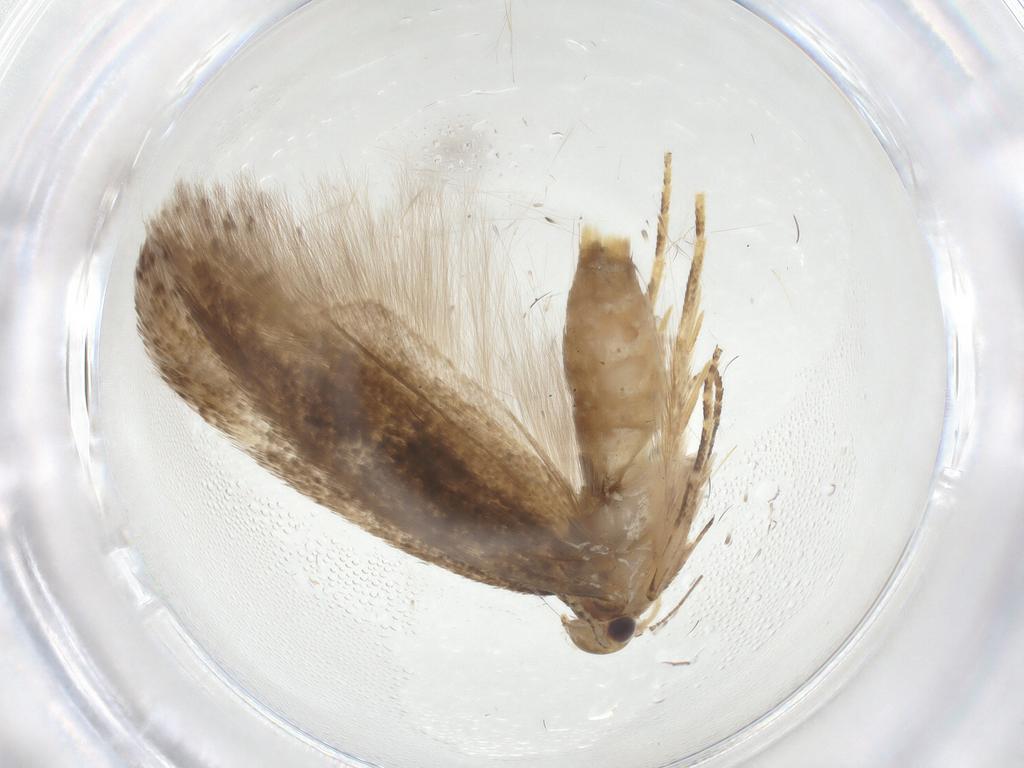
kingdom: Animalia
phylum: Arthropoda
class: Insecta
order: Lepidoptera
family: Gelechiidae
